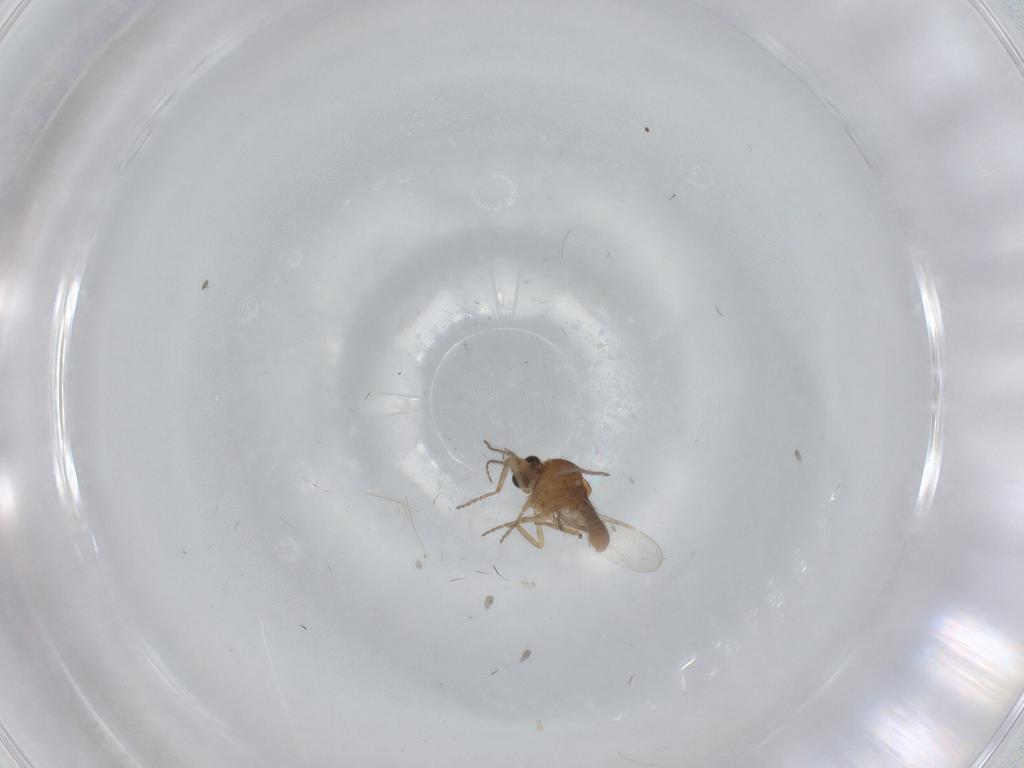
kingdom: Animalia
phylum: Arthropoda
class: Insecta
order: Diptera
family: Ceratopogonidae
